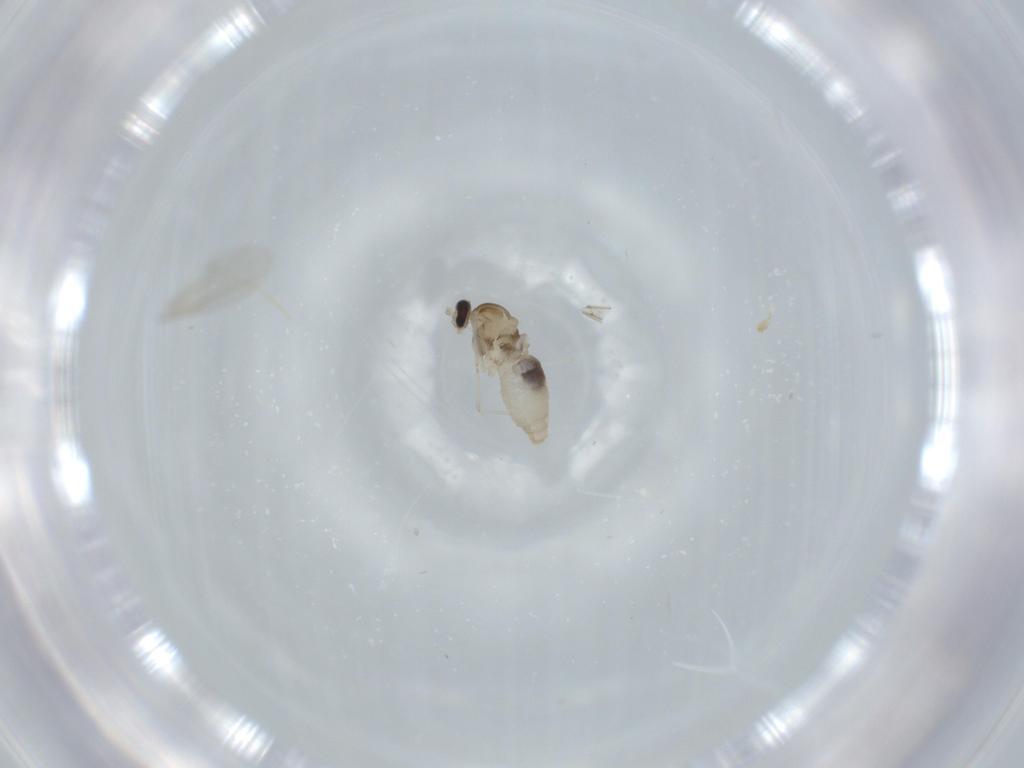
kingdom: Animalia
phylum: Arthropoda
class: Insecta
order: Diptera
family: Cecidomyiidae
